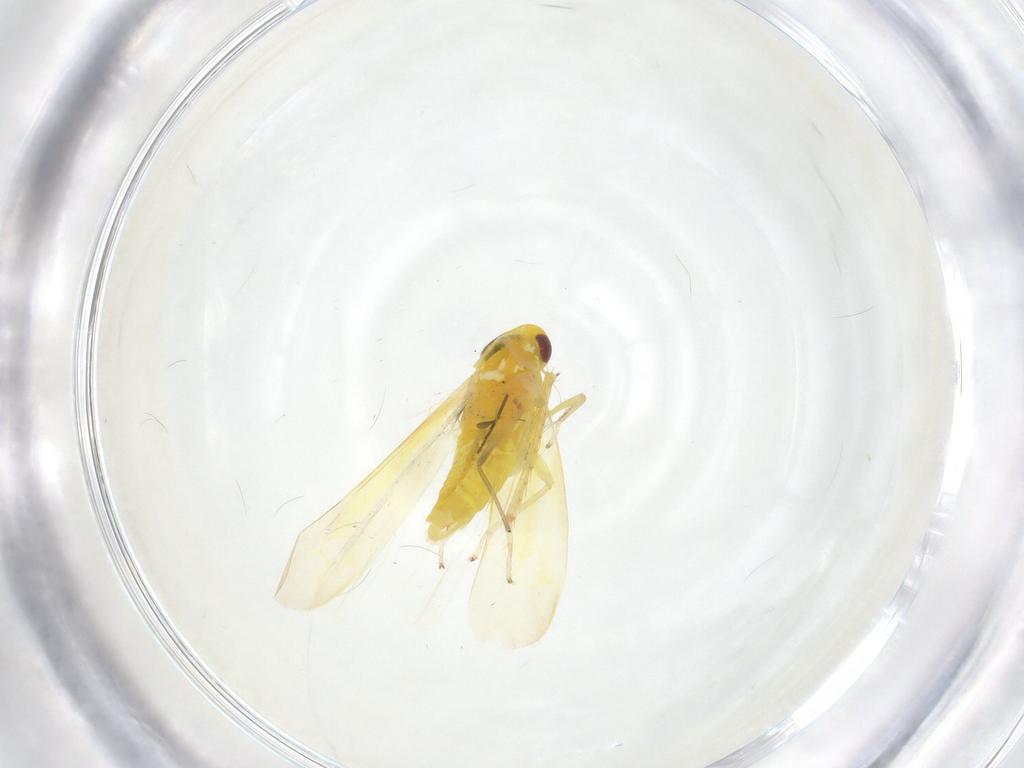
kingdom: Animalia
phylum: Arthropoda
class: Insecta
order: Hemiptera
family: Cicadellidae
